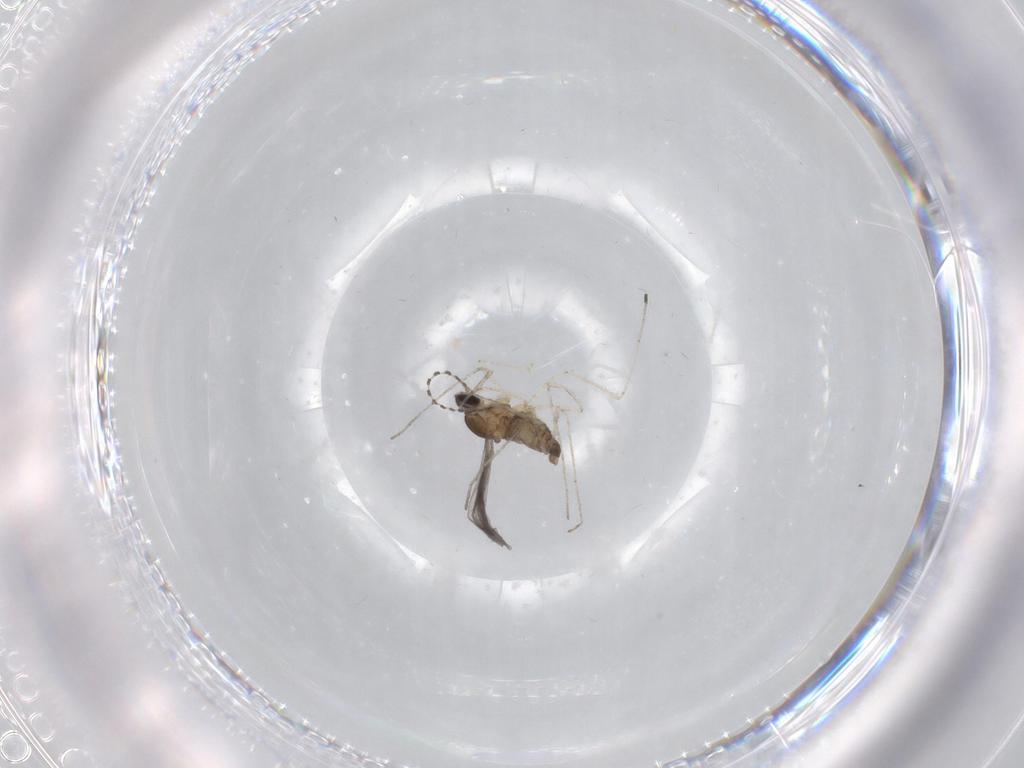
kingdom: Animalia
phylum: Arthropoda
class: Insecta
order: Diptera
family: Cecidomyiidae
